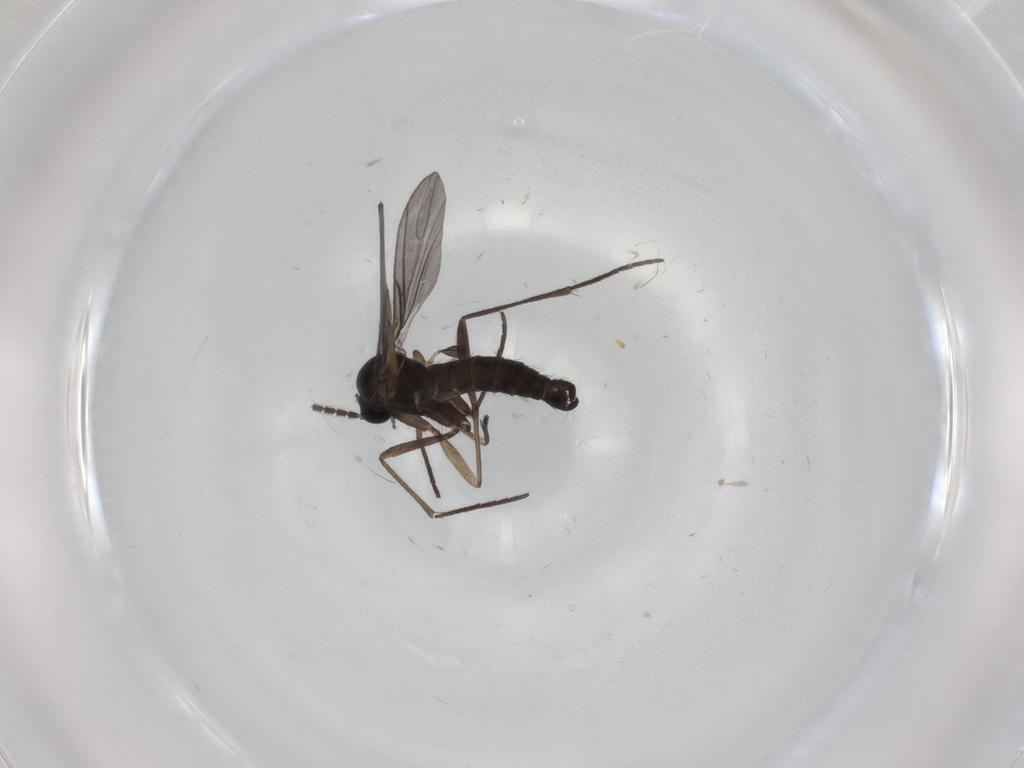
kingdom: Animalia
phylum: Arthropoda
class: Insecta
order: Diptera
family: Sciaridae
